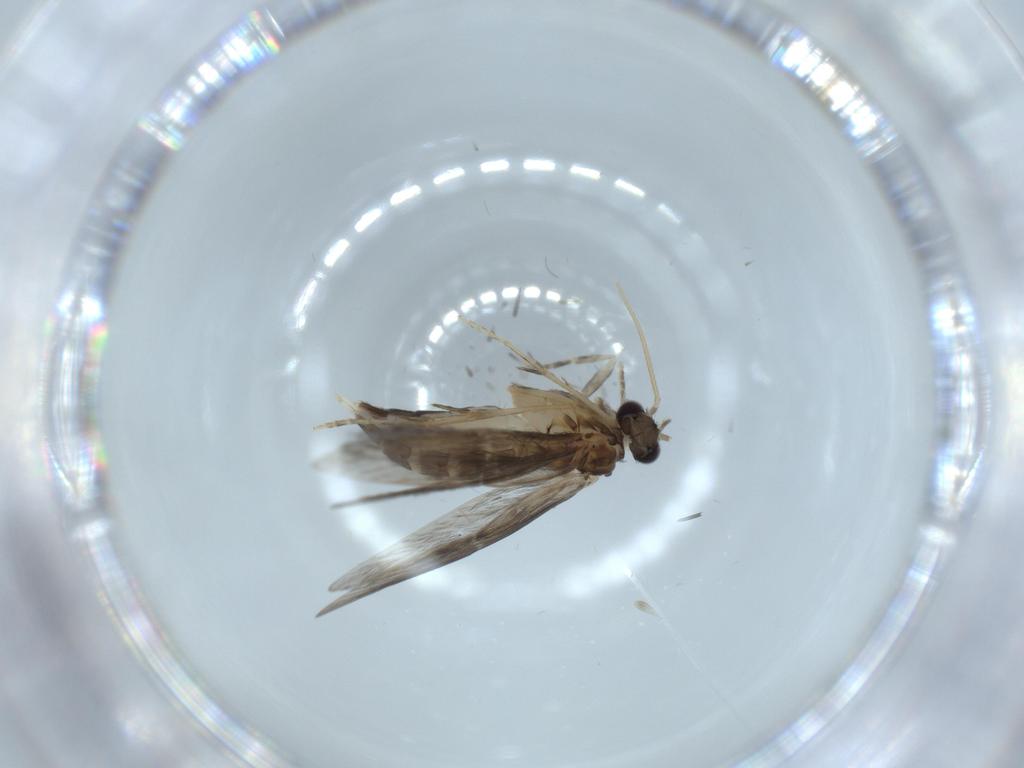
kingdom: Animalia
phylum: Arthropoda
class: Insecta
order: Trichoptera
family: Hydroptilidae
